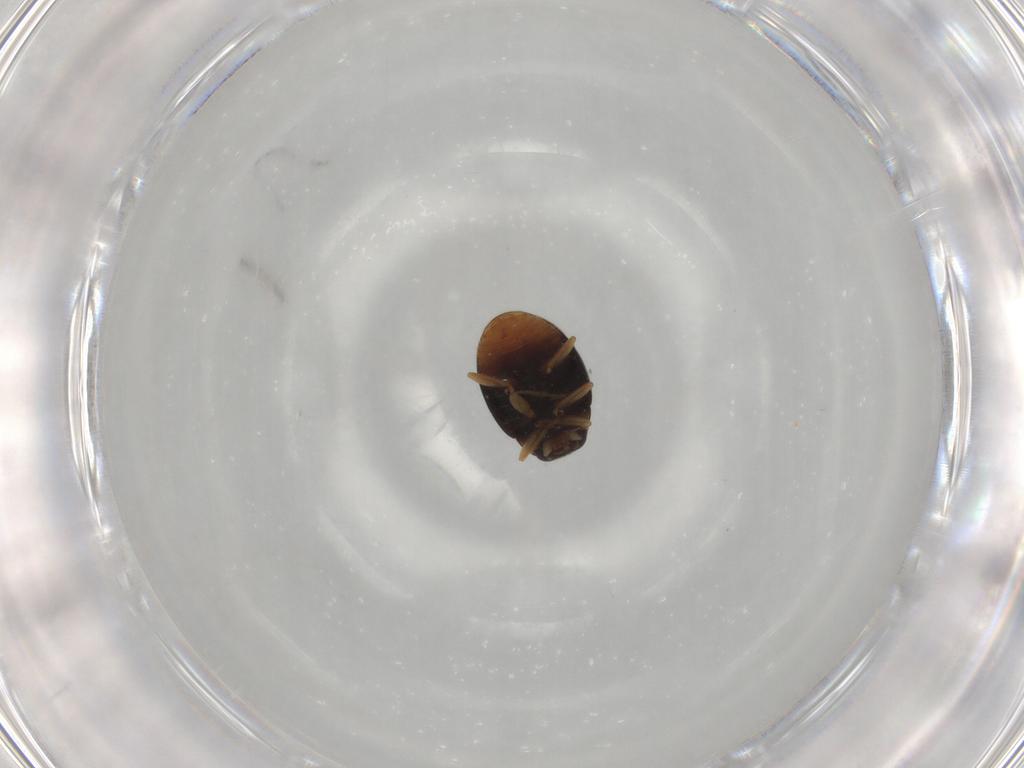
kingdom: Animalia
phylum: Arthropoda
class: Insecta
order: Coleoptera
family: Coccinellidae
